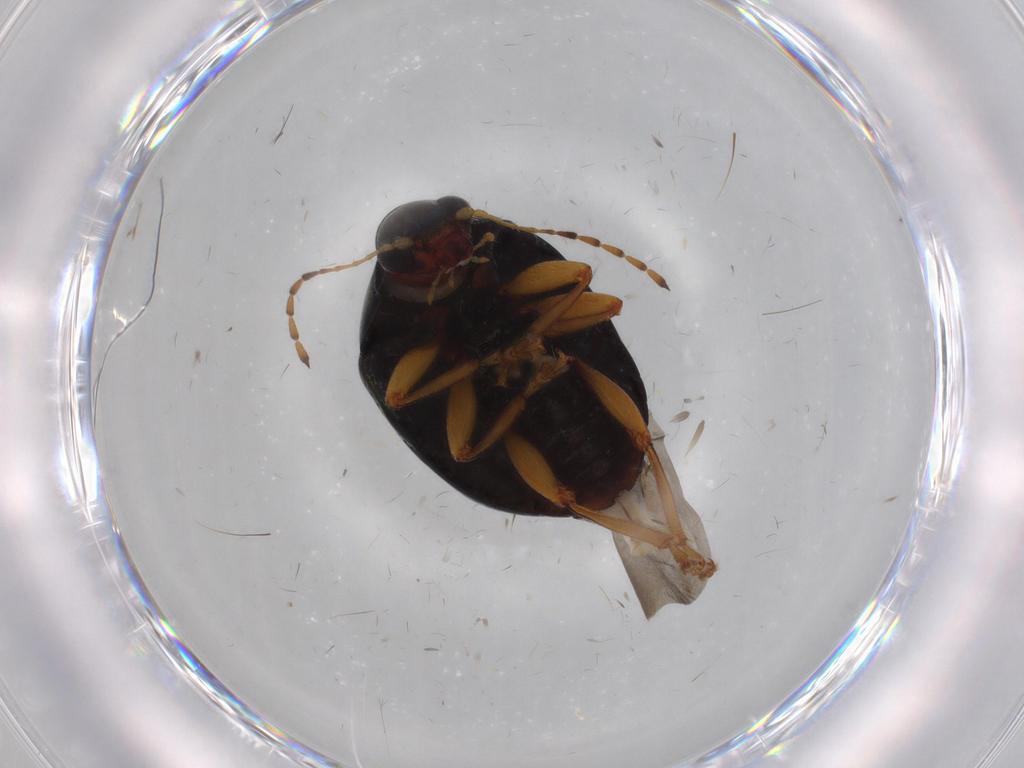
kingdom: Animalia
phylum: Arthropoda
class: Insecta
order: Coleoptera
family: Chrysomelidae
